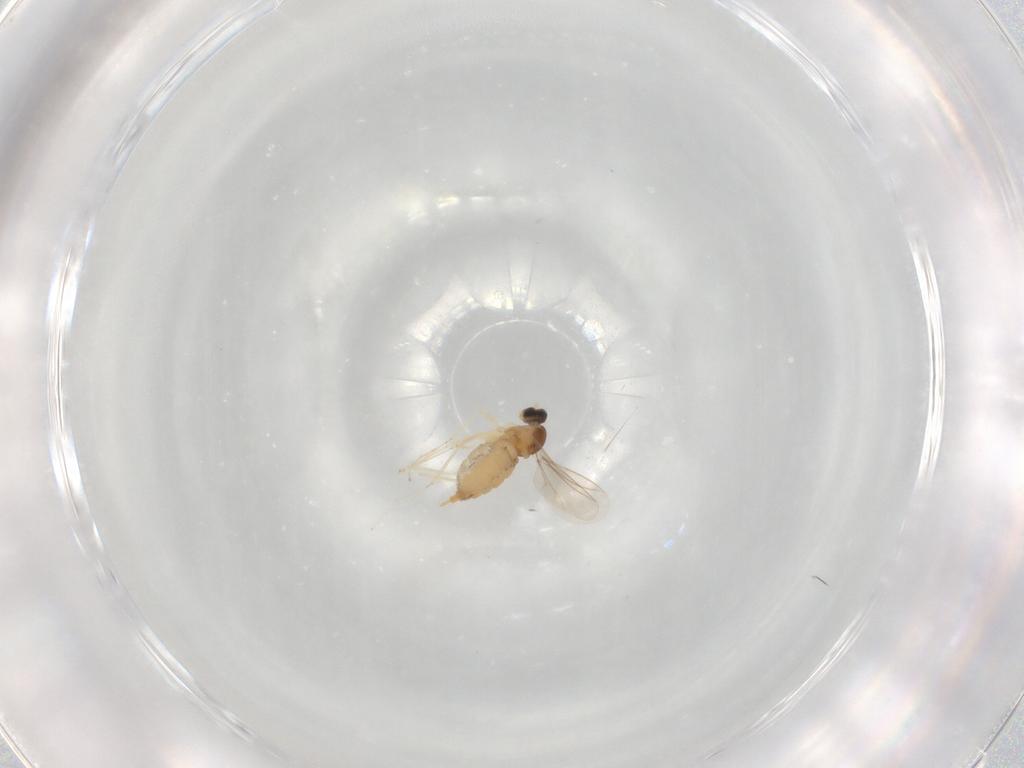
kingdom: Animalia
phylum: Arthropoda
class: Insecta
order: Diptera
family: Cecidomyiidae
